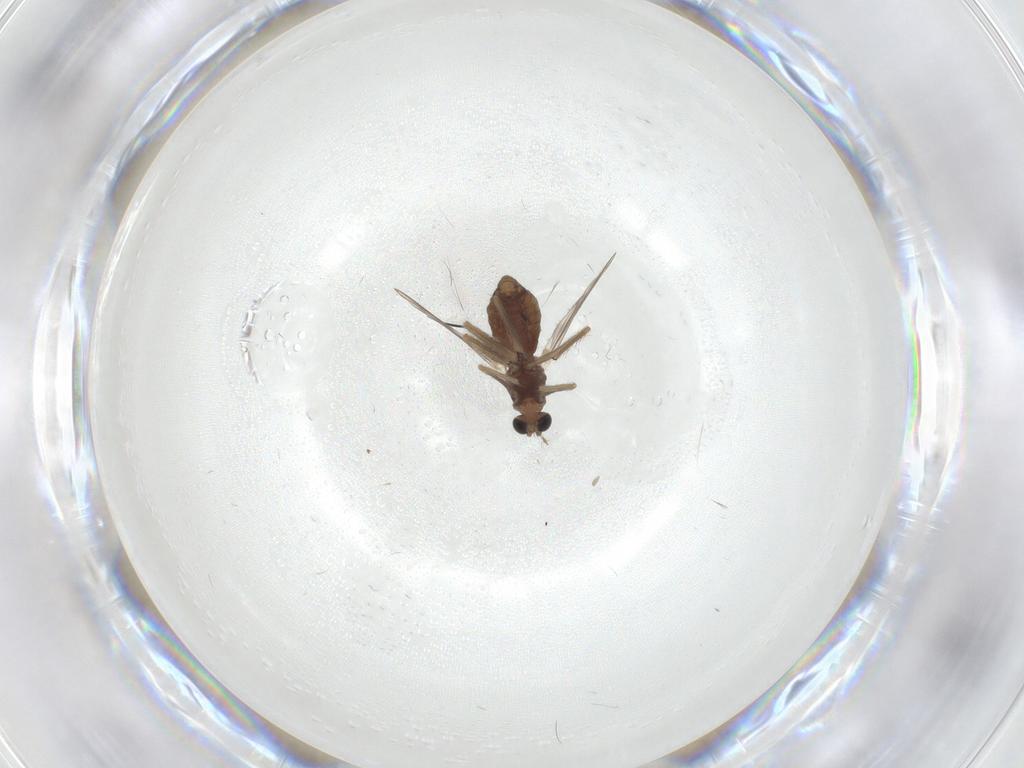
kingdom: Animalia
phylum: Arthropoda
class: Insecta
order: Diptera
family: Chironomidae
